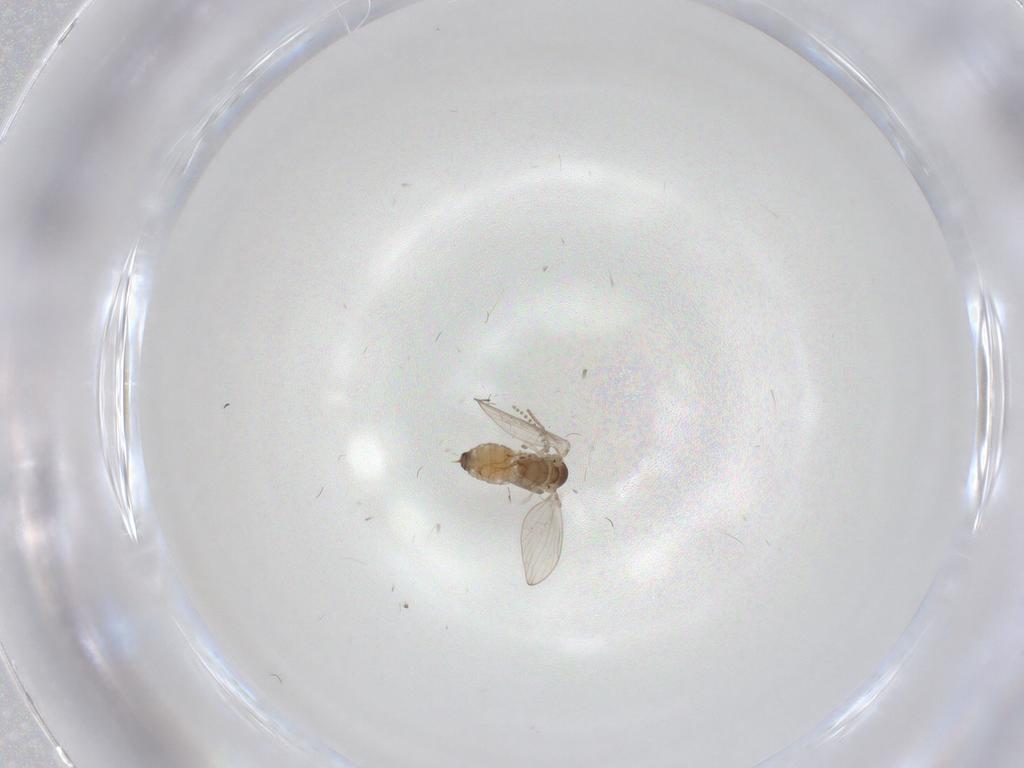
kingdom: Animalia
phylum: Arthropoda
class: Insecta
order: Diptera
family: Psychodidae
